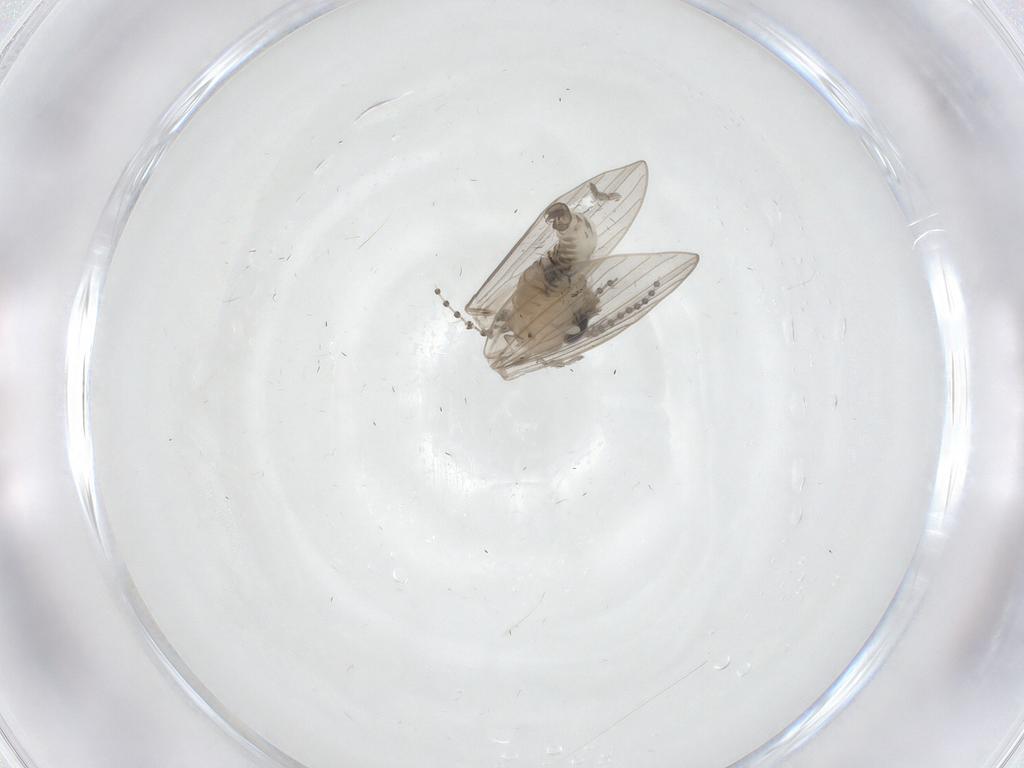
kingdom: Animalia
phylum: Arthropoda
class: Insecta
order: Diptera
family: Psychodidae
